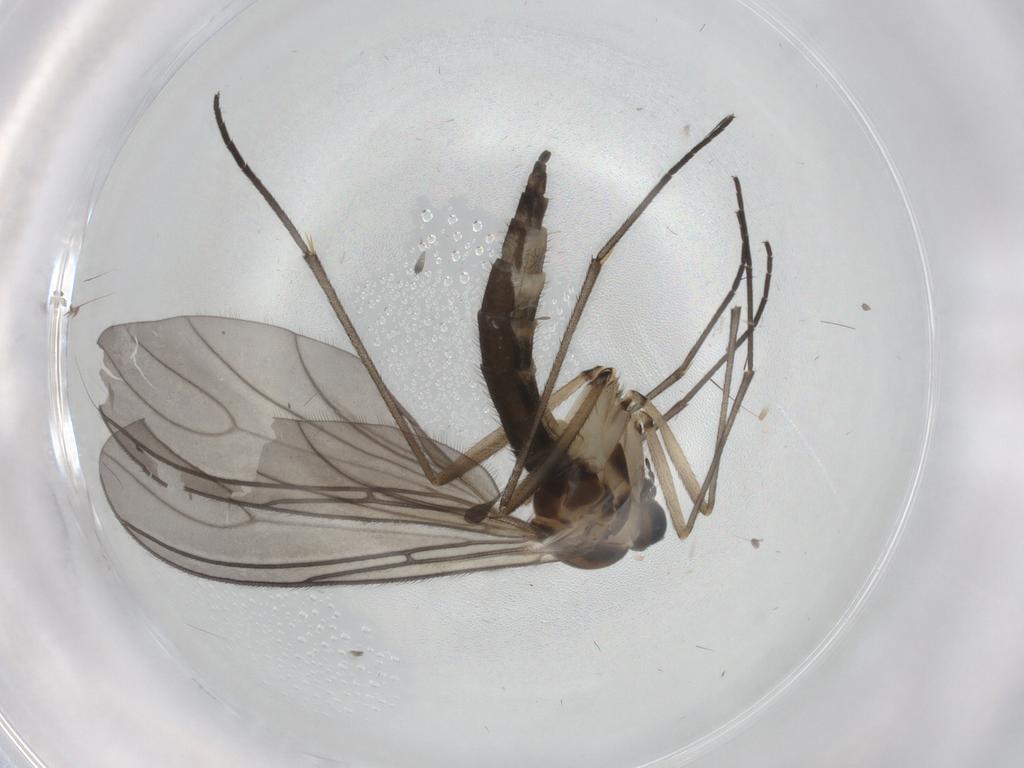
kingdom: Animalia
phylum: Arthropoda
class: Insecta
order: Diptera
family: Sciaridae
